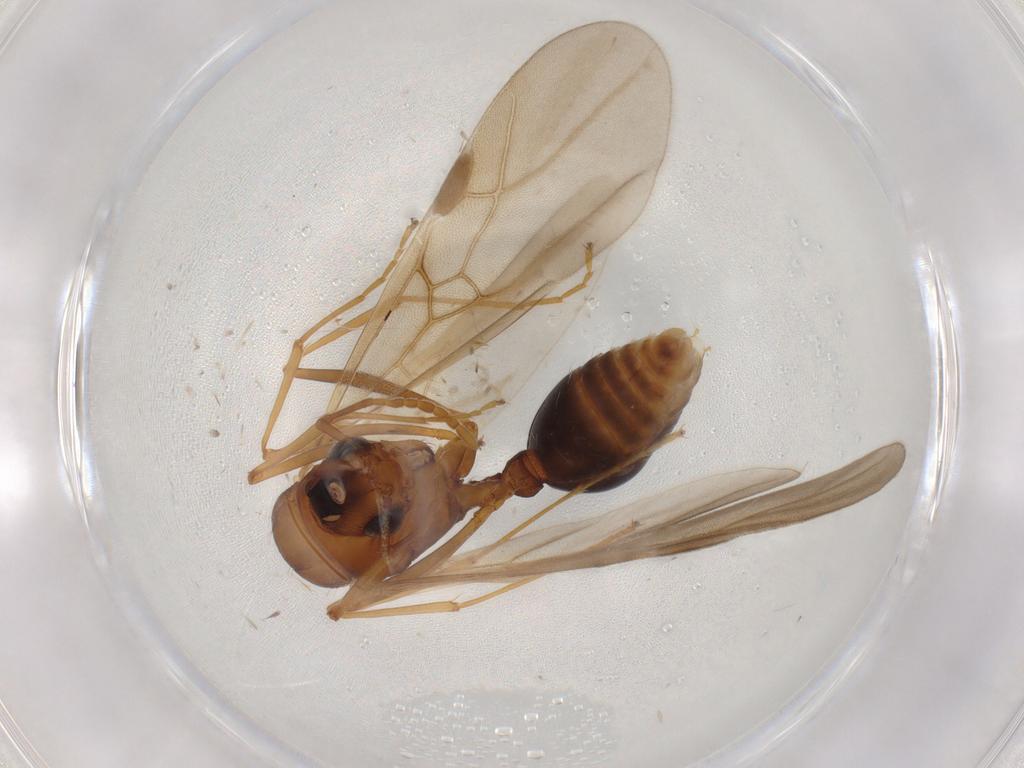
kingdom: Animalia
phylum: Arthropoda
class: Insecta
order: Hymenoptera
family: Formicidae
